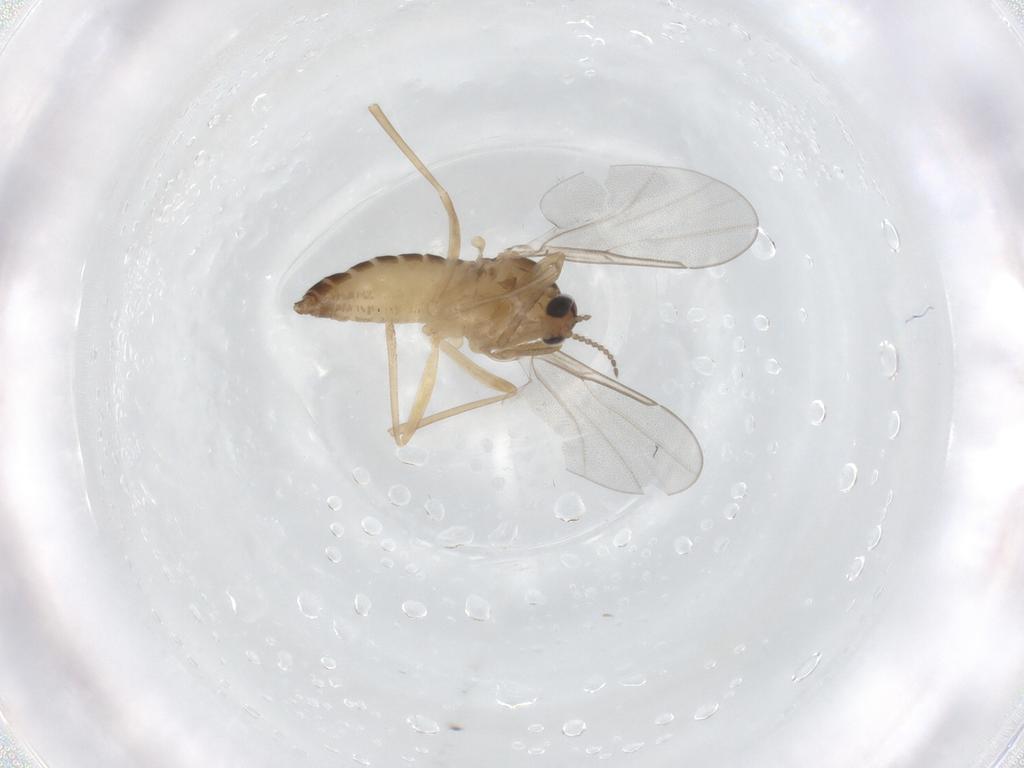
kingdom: Animalia
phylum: Arthropoda
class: Insecta
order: Diptera
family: Cecidomyiidae
